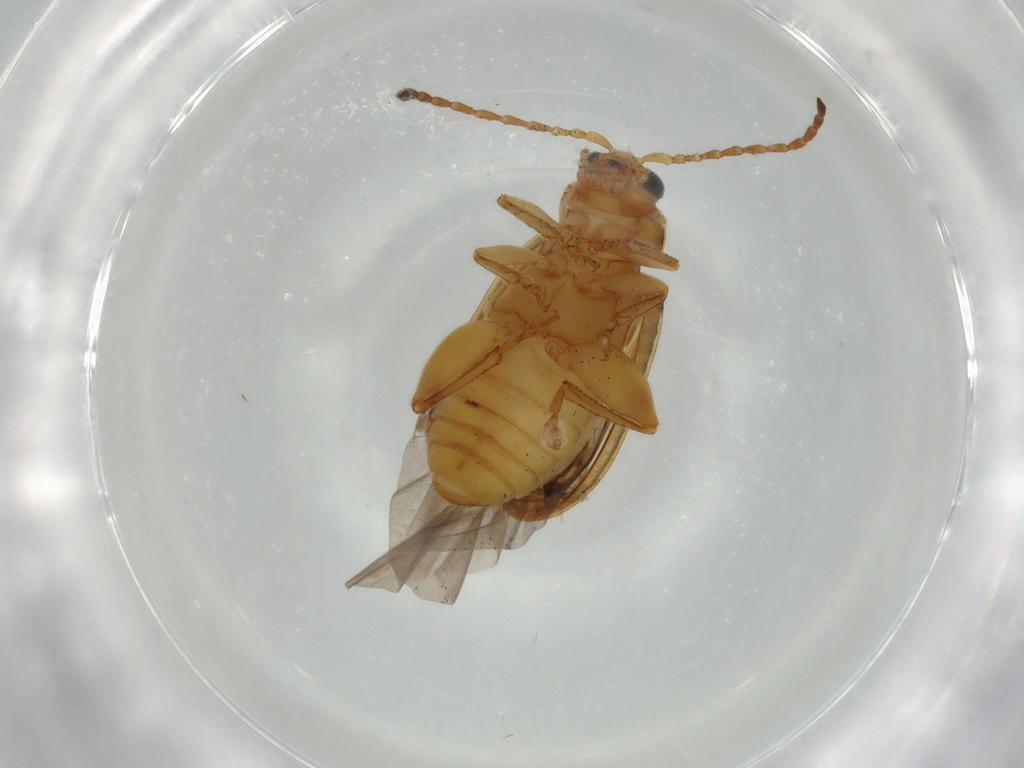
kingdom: Animalia
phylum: Arthropoda
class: Insecta
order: Coleoptera
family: Chrysomelidae
